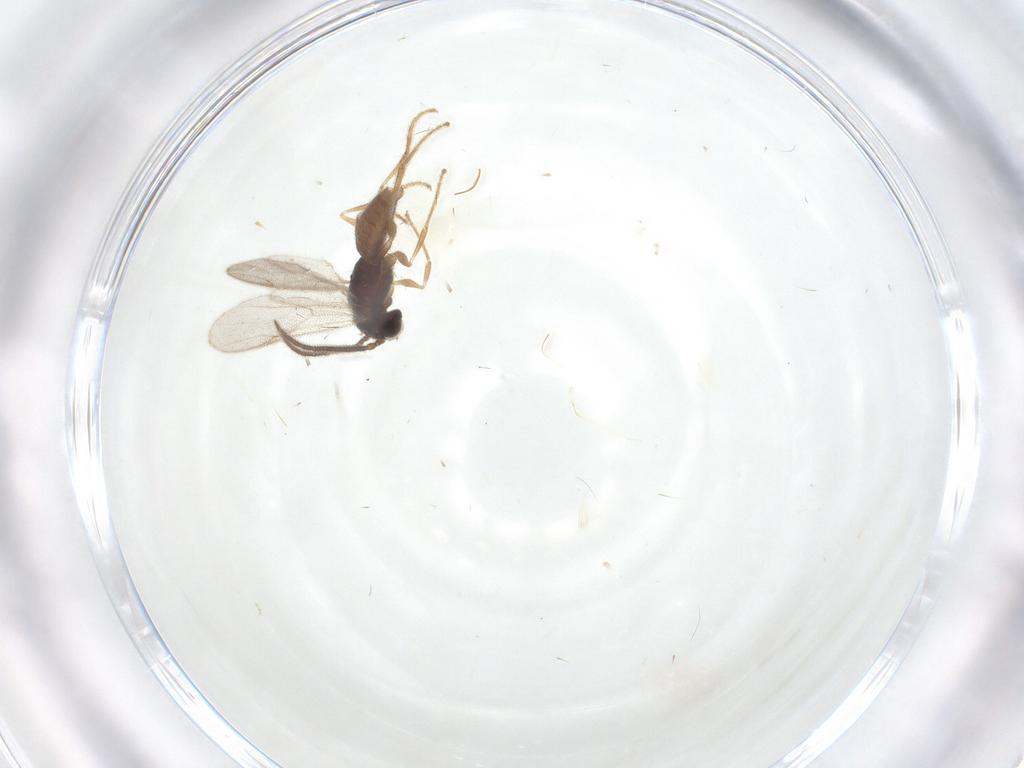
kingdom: Animalia
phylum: Arthropoda
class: Insecta
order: Hymenoptera
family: Dryinidae
